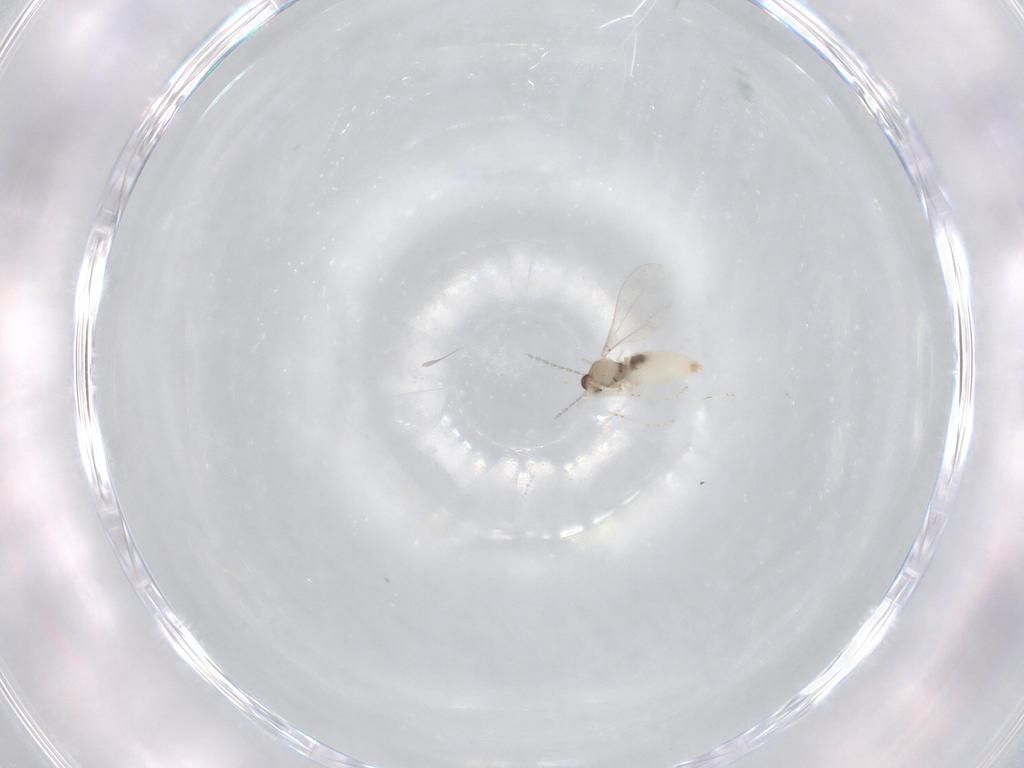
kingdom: Animalia
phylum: Arthropoda
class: Insecta
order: Diptera
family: Cecidomyiidae
